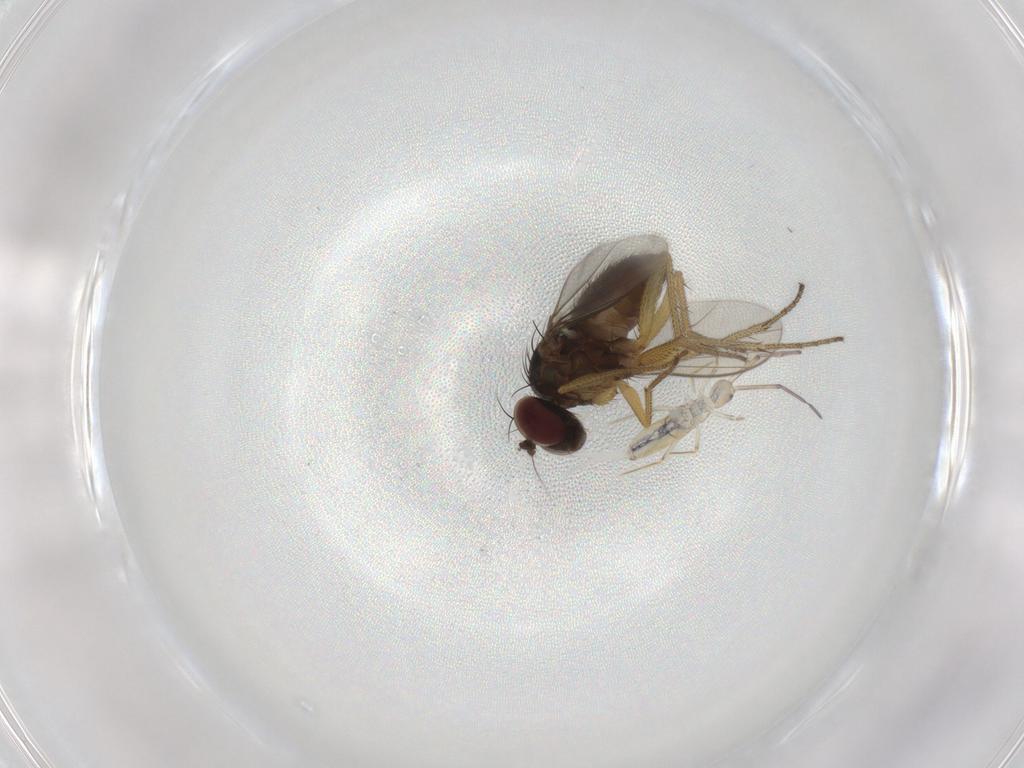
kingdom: Animalia
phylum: Arthropoda
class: Insecta
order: Diptera
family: Dolichopodidae
